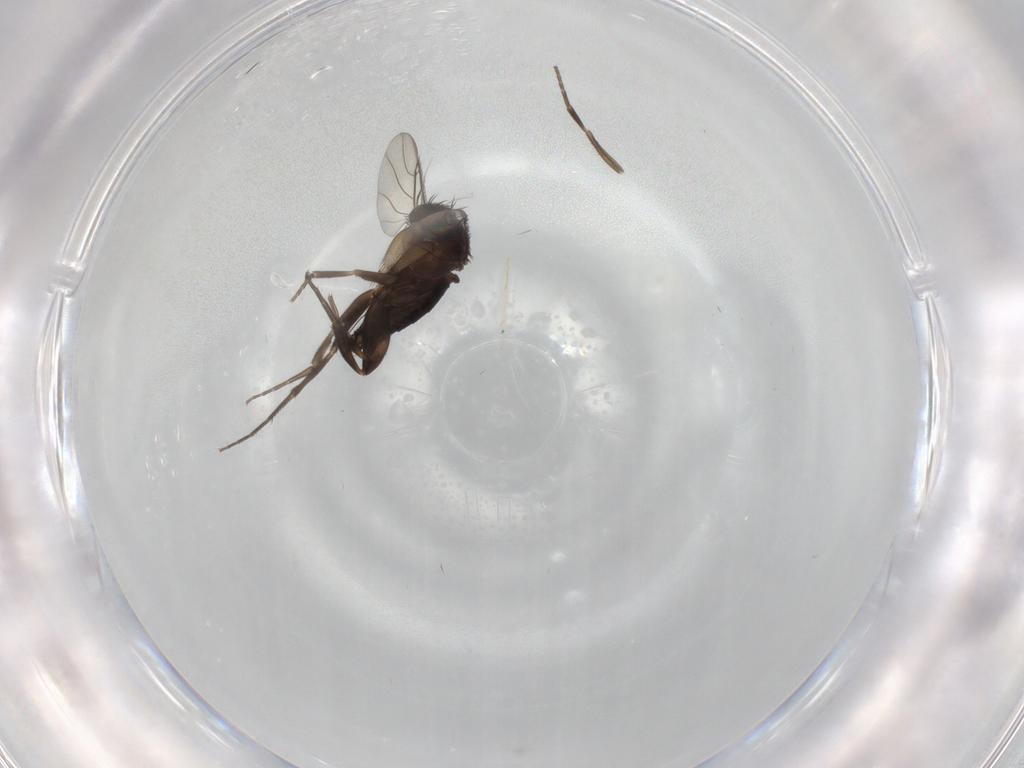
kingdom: Animalia
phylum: Arthropoda
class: Insecta
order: Diptera
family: Phoridae
